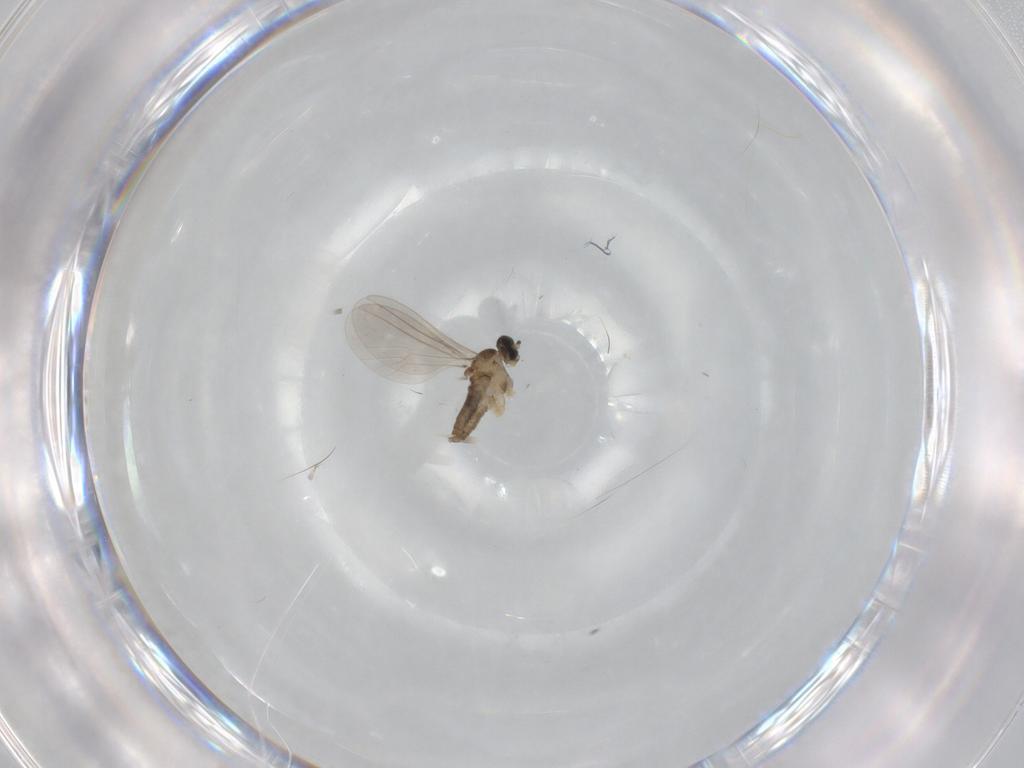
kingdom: Animalia
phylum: Arthropoda
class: Insecta
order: Diptera
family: Cecidomyiidae
